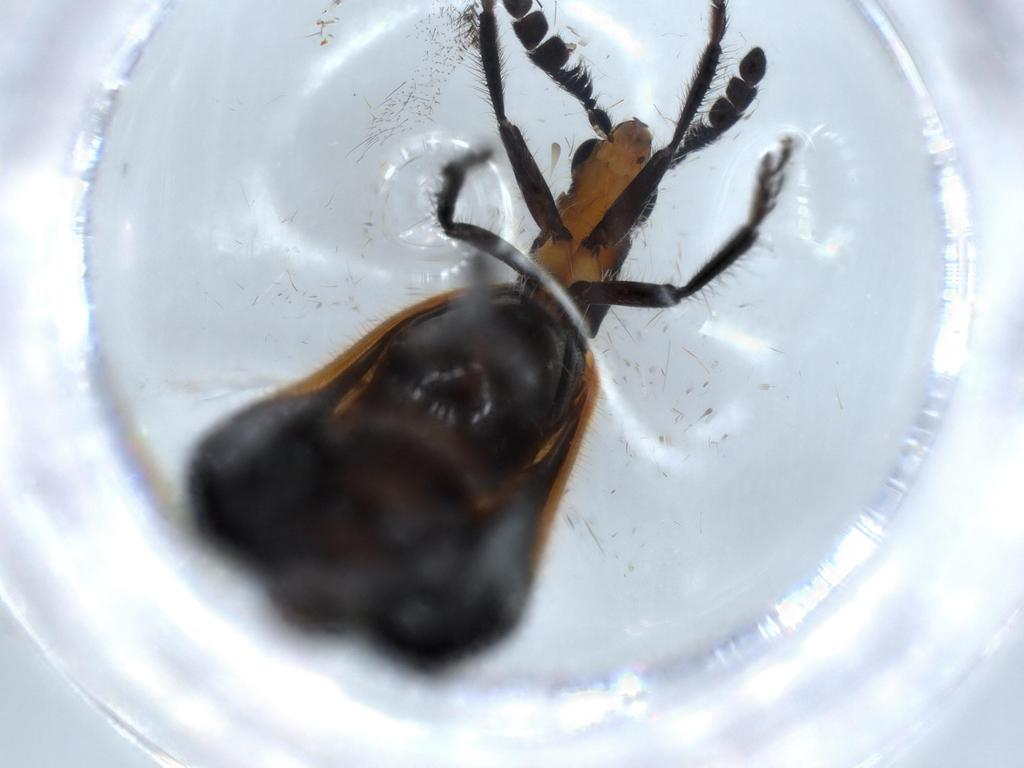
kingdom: Animalia
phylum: Arthropoda
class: Insecta
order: Coleoptera
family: Cleridae
